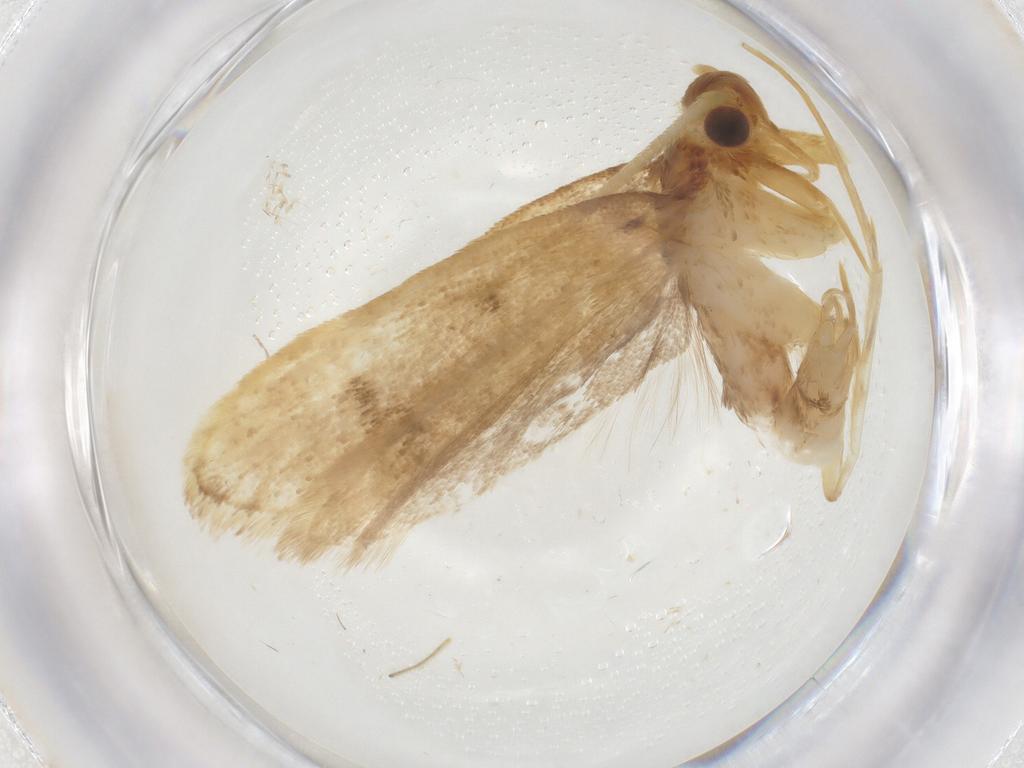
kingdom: Animalia
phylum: Arthropoda
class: Insecta
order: Lepidoptera
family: Lecithoceridae
